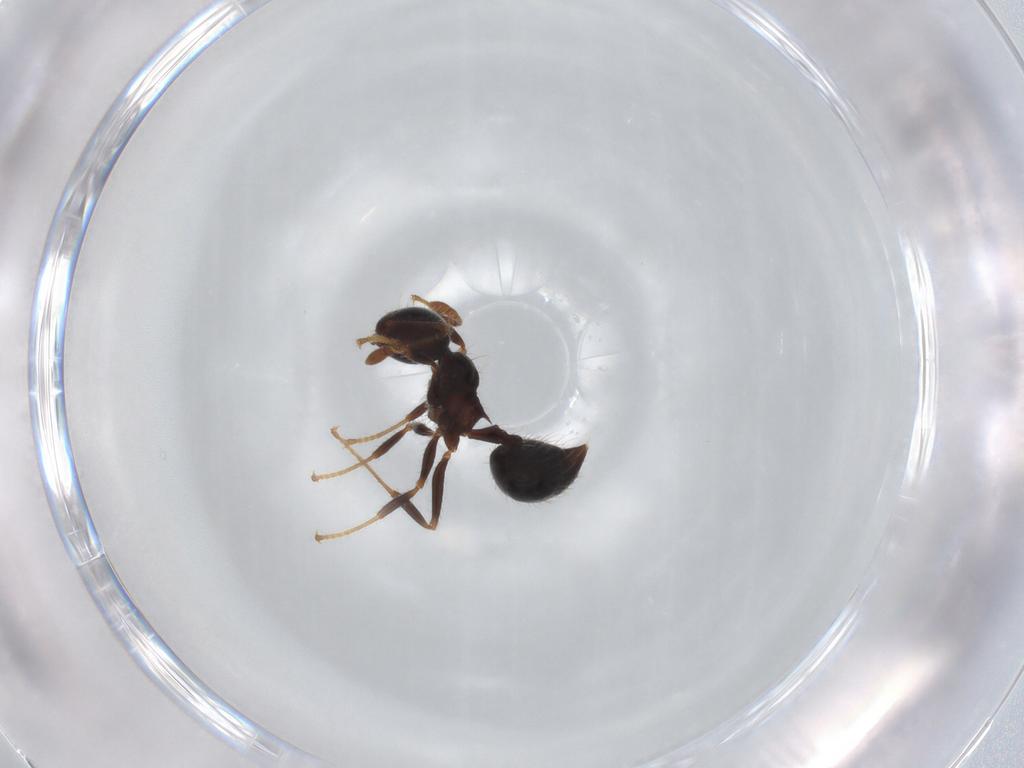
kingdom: Animalia
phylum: Arthropoda
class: Insecta
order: Hymenoptera
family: Formicidae
